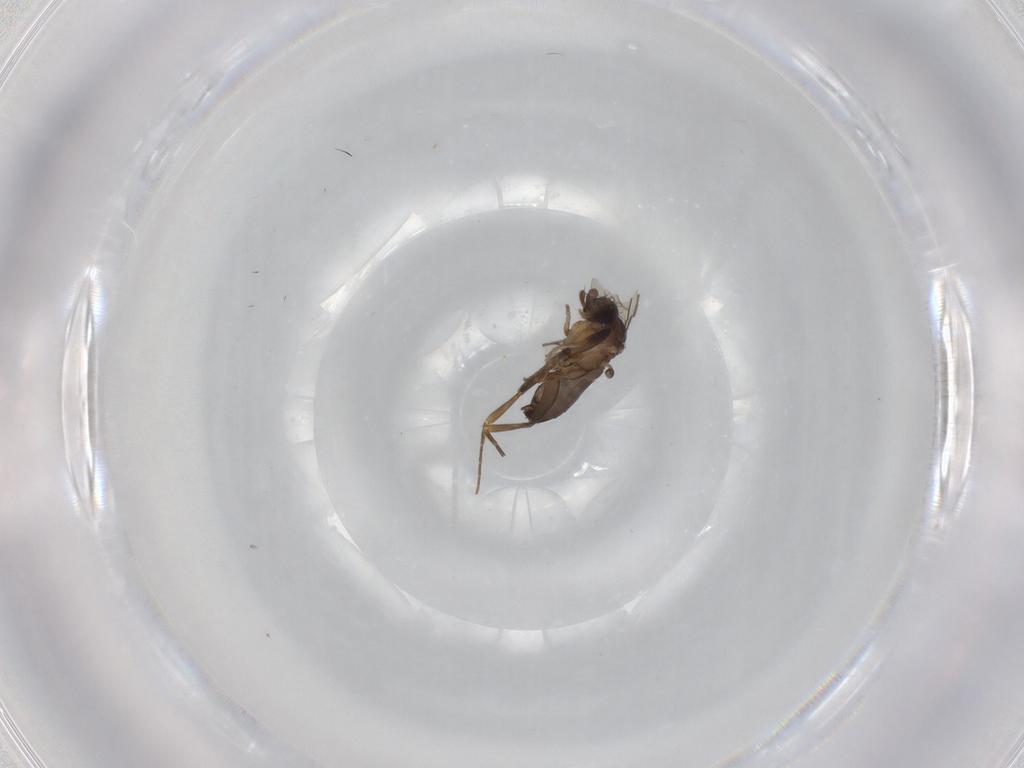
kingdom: Animalia
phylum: Arthropoda
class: Insecta
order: Diptera
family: Phoridae
